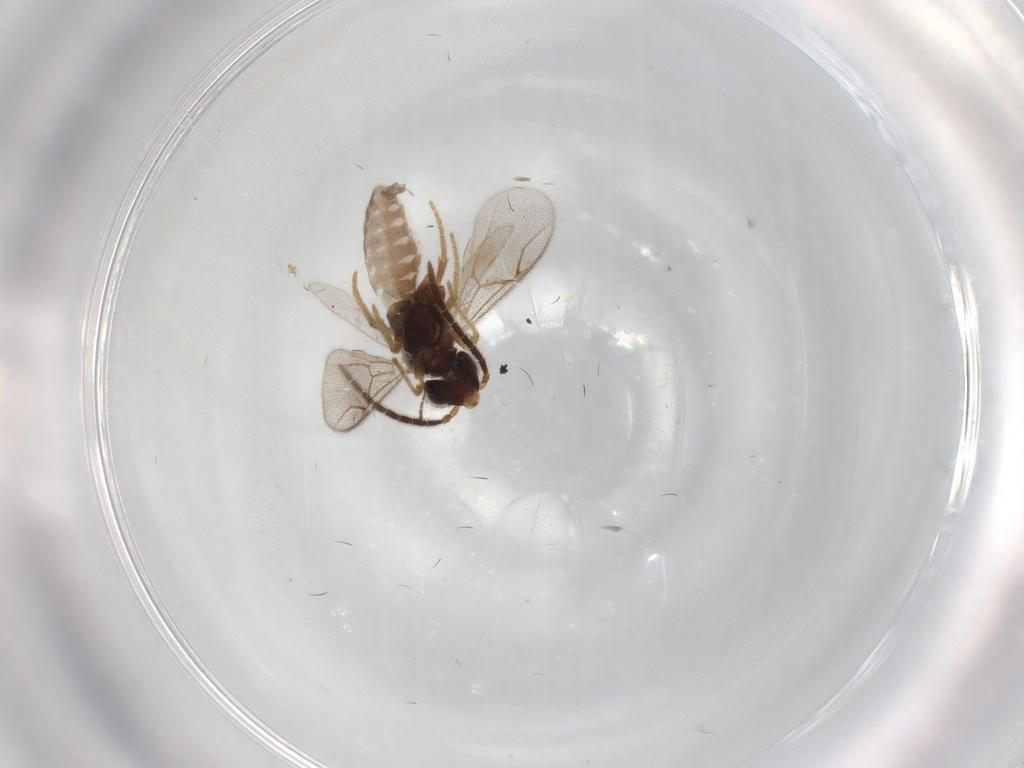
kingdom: Animalia
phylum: Arthropoda
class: Insecta
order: Hymenoptera
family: Dryinidae
